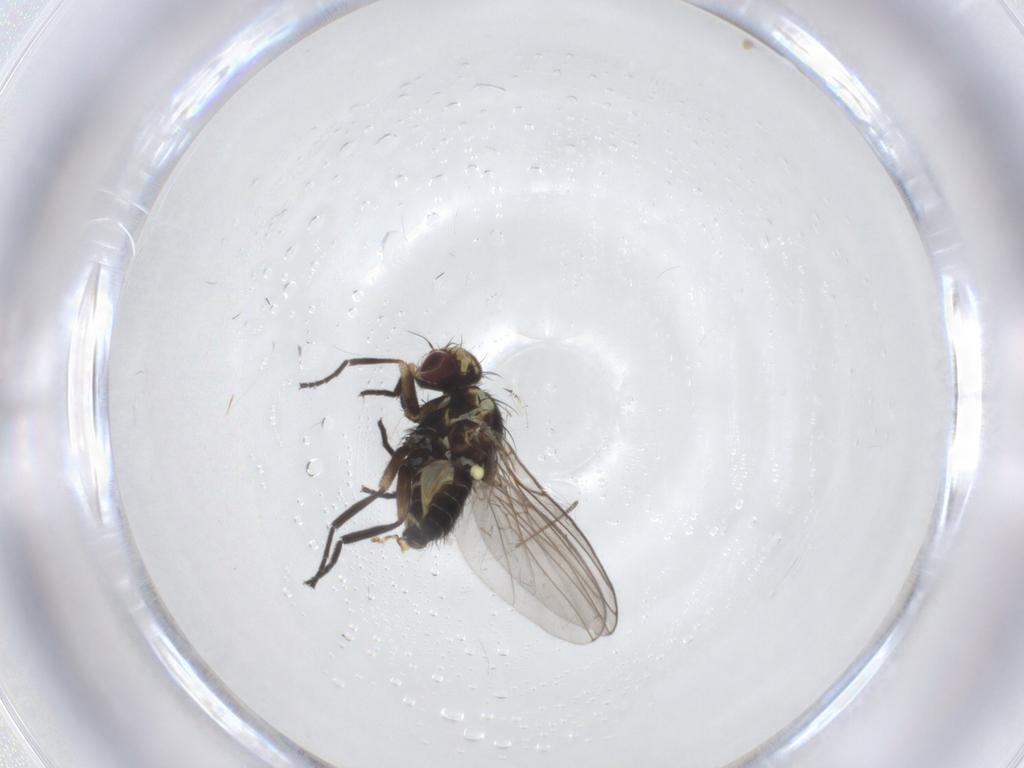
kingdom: Animalia
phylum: Arthropoda
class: Insecta
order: Diptera
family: Agromyzidae
